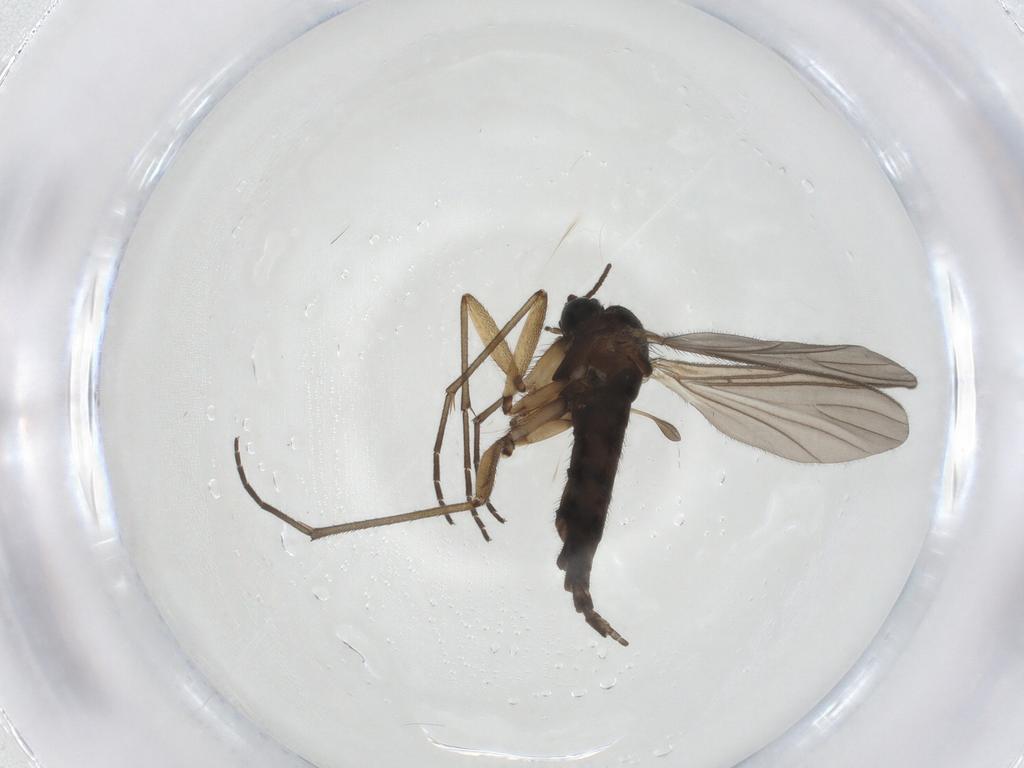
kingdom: Animalia
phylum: Arthropoda
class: Insecta
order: Diptera
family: Sciaridae
